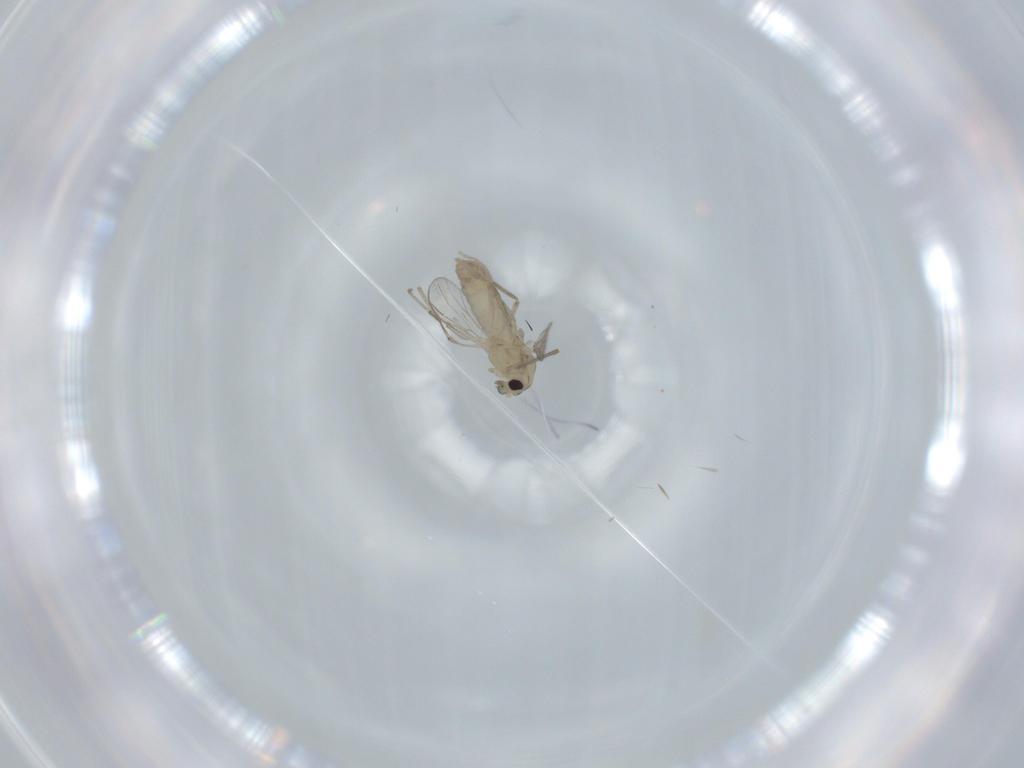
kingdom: Animalia
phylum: Arthropoda
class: Insecta
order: Diptera
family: Chironomidae
